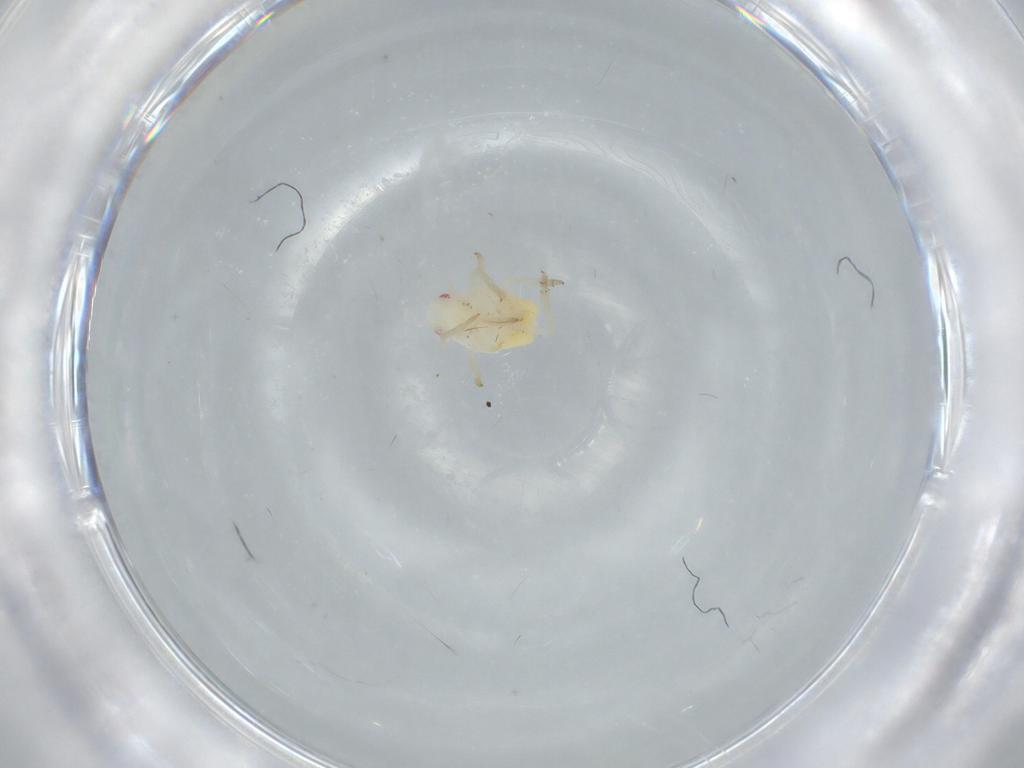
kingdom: Animalia
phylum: Arthropoda
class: Insecta
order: Hemiptera
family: Flatidae
